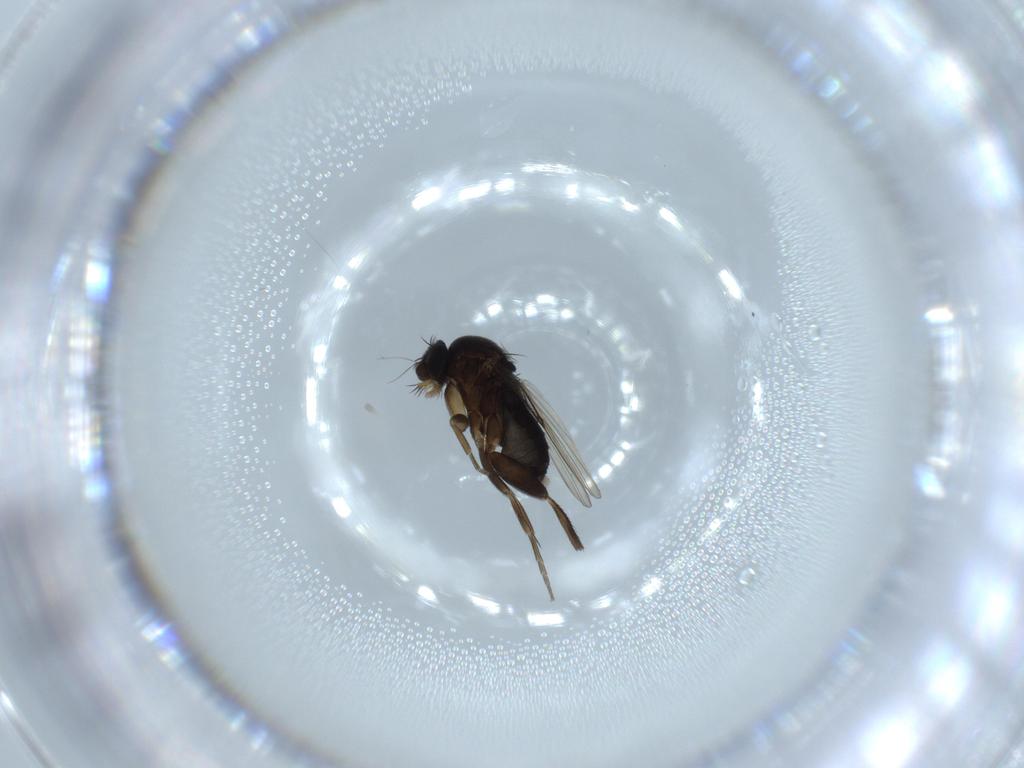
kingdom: Animalia
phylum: Arthropoda
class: Insecta
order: Diptera
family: Phoridae
